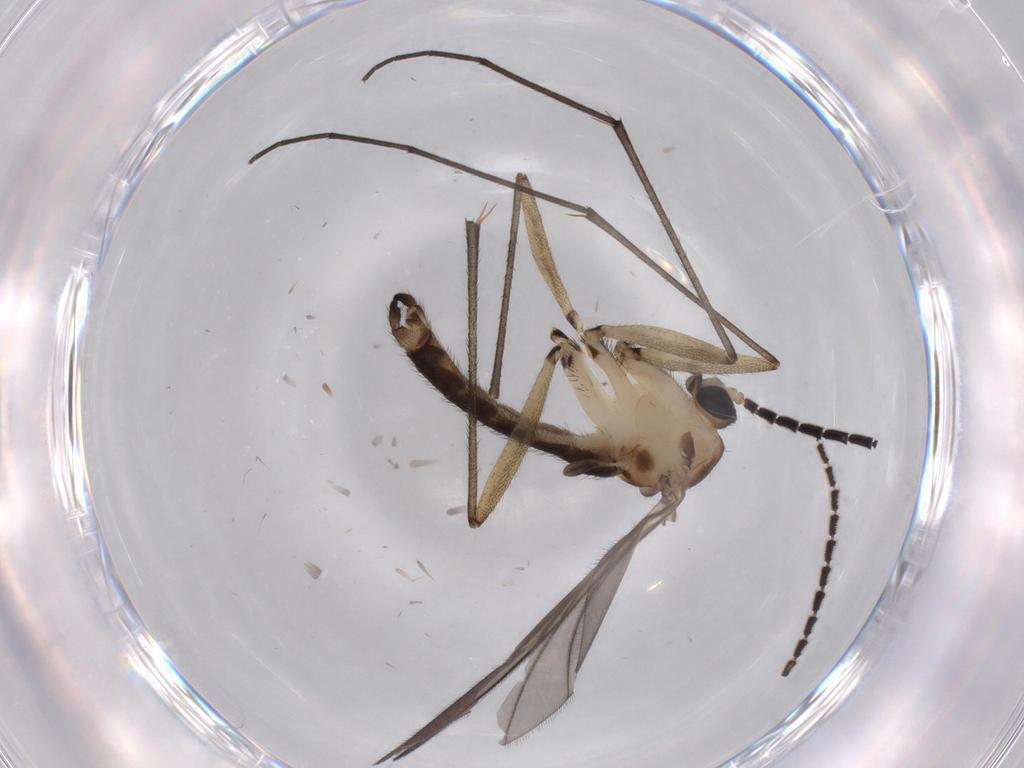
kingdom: Animalia
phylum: Arthropoda
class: Insecta
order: Diptera
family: Sciaridae
